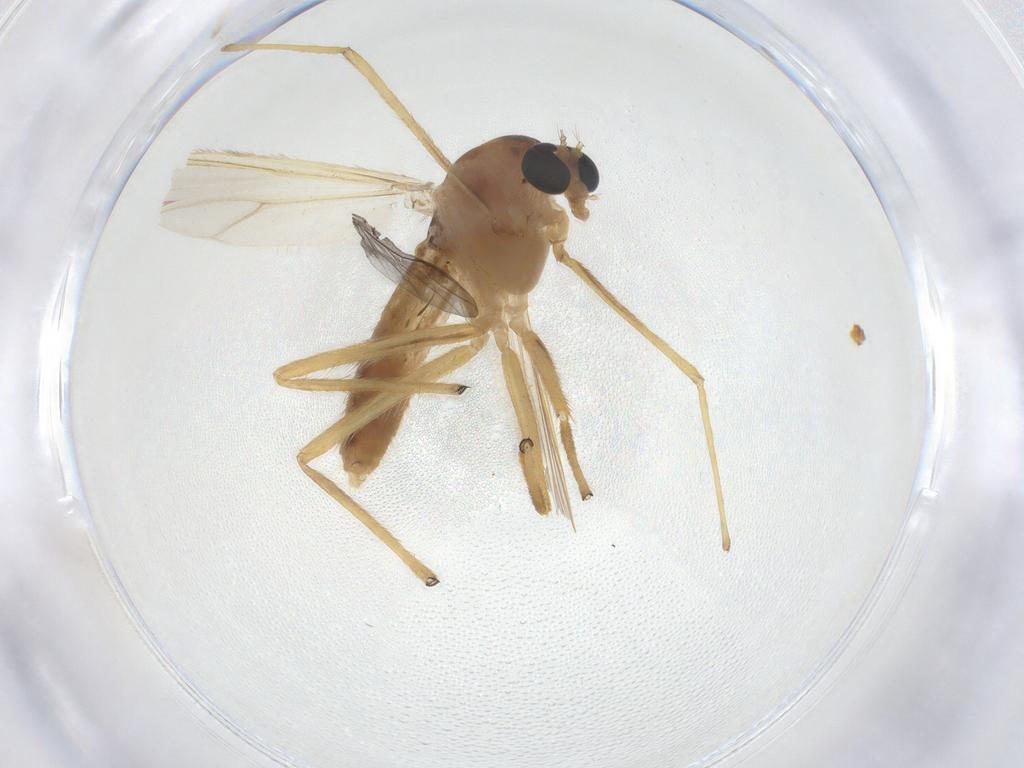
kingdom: Animalia
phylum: Arthropoda
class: Insecta
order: Diptera
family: Chironomidae
